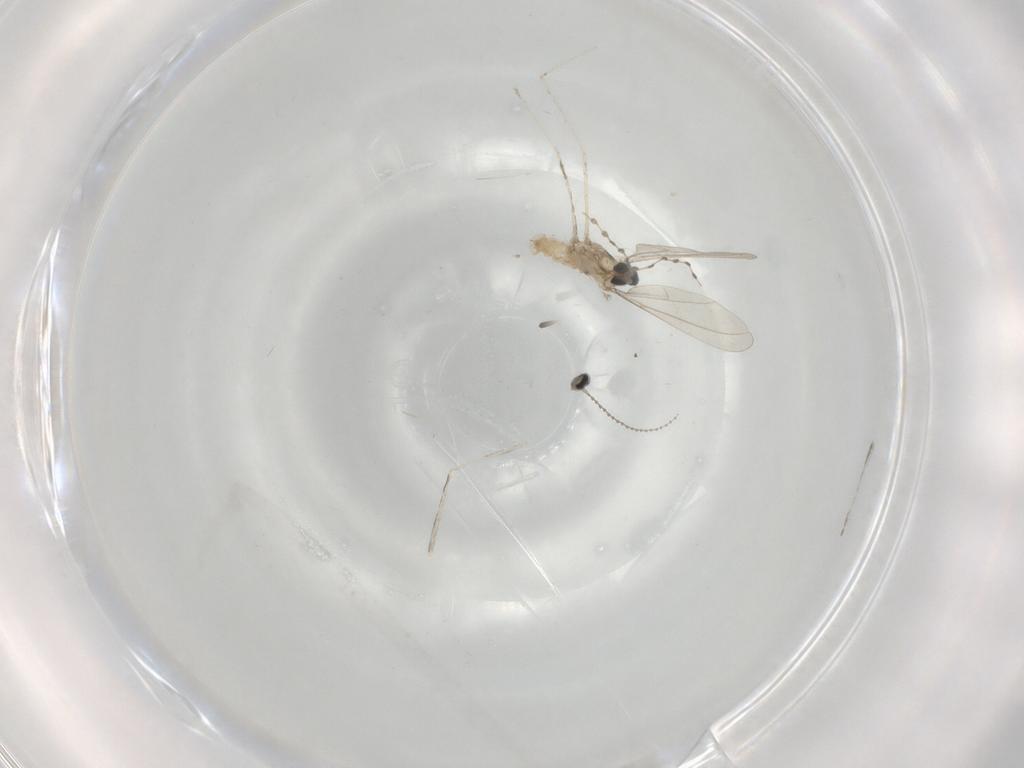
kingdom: Animalia
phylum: Arthropoda
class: Insecta
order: Diptera
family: Cecidomyiidae
